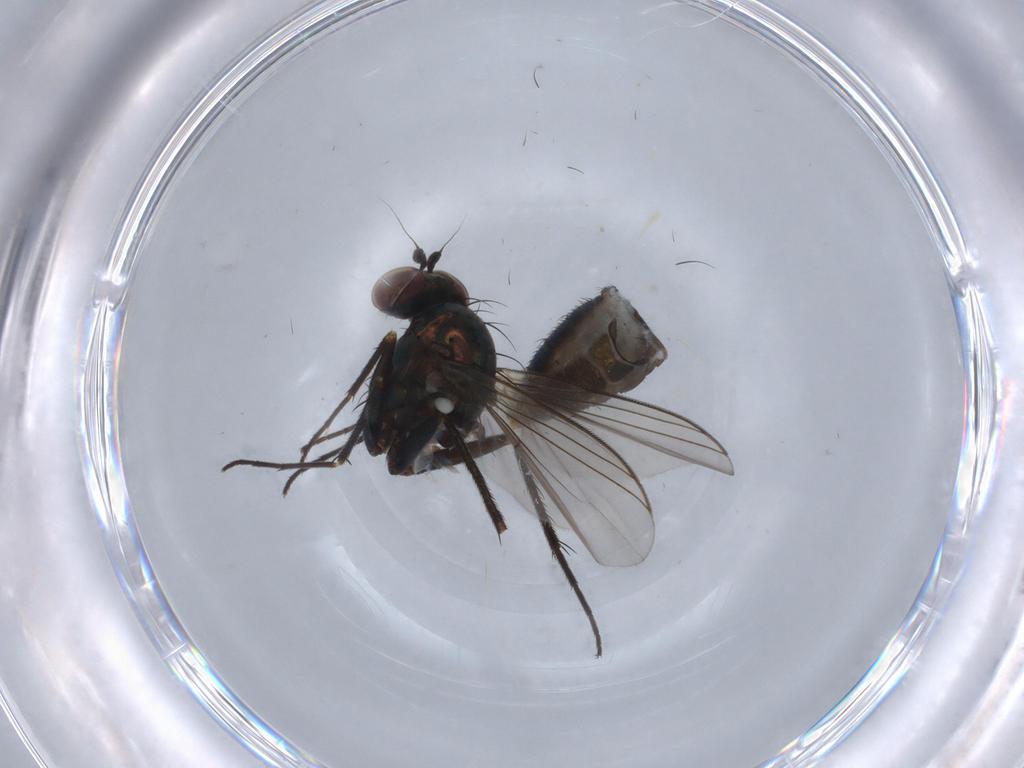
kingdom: Animalia
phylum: Arthropoda
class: Insecta
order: Diptera
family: Dolichopodidae
